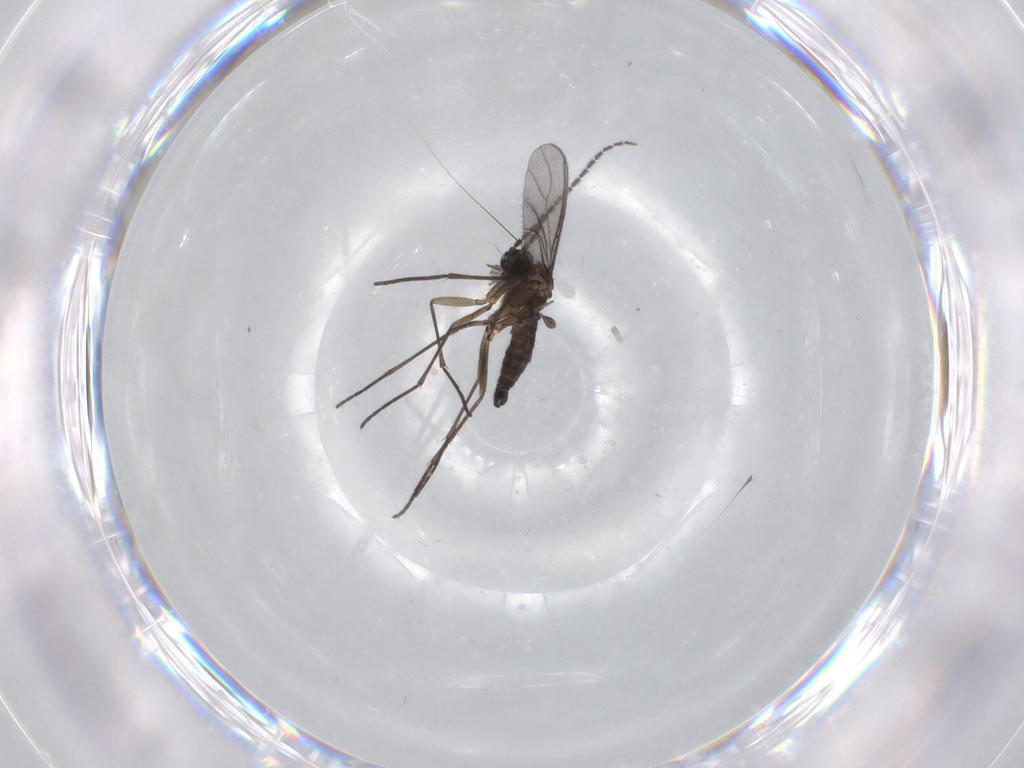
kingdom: Animalia
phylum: Arthropoda
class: Insecta
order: Diptera
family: Sciaridae
